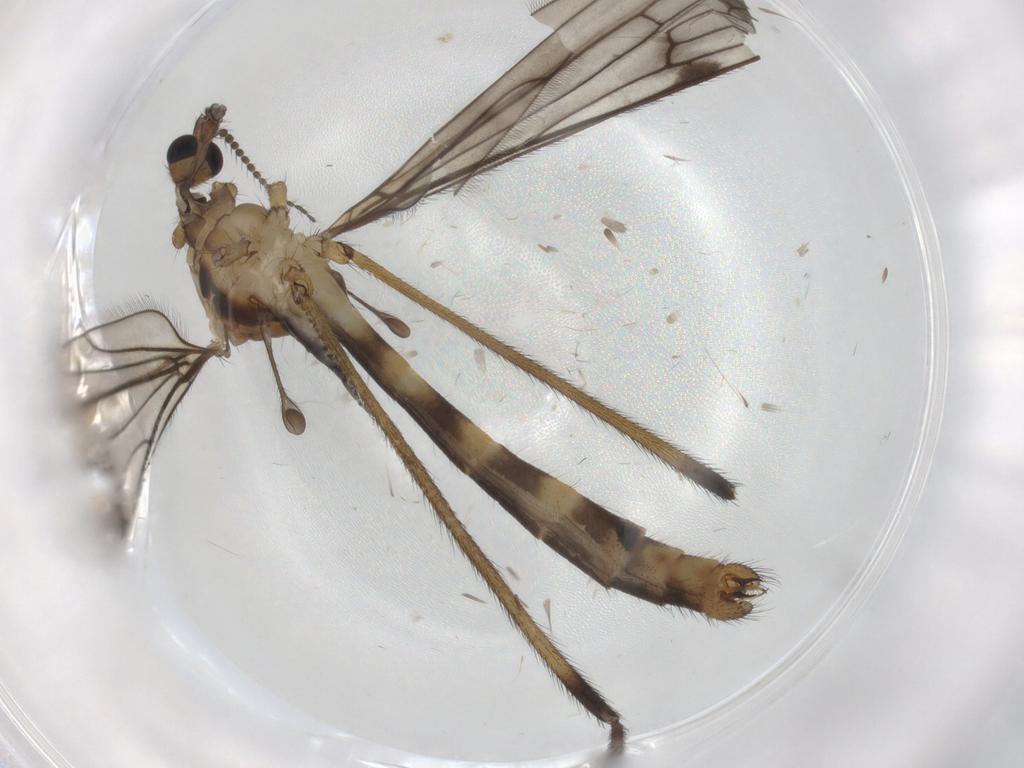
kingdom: Animalia
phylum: Arthropoda
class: Insecta
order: Diptera
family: Limoniidae
